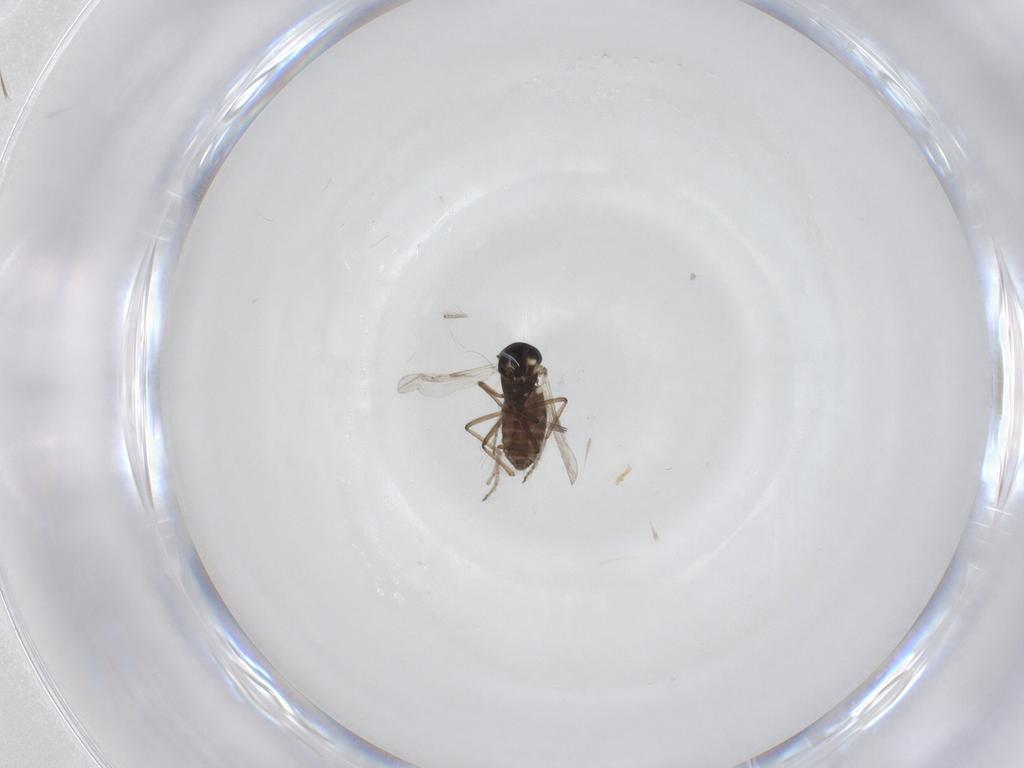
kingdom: Animalia
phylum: Arthropoda
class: Insecta
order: Diptera
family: Ceratopogonidae
